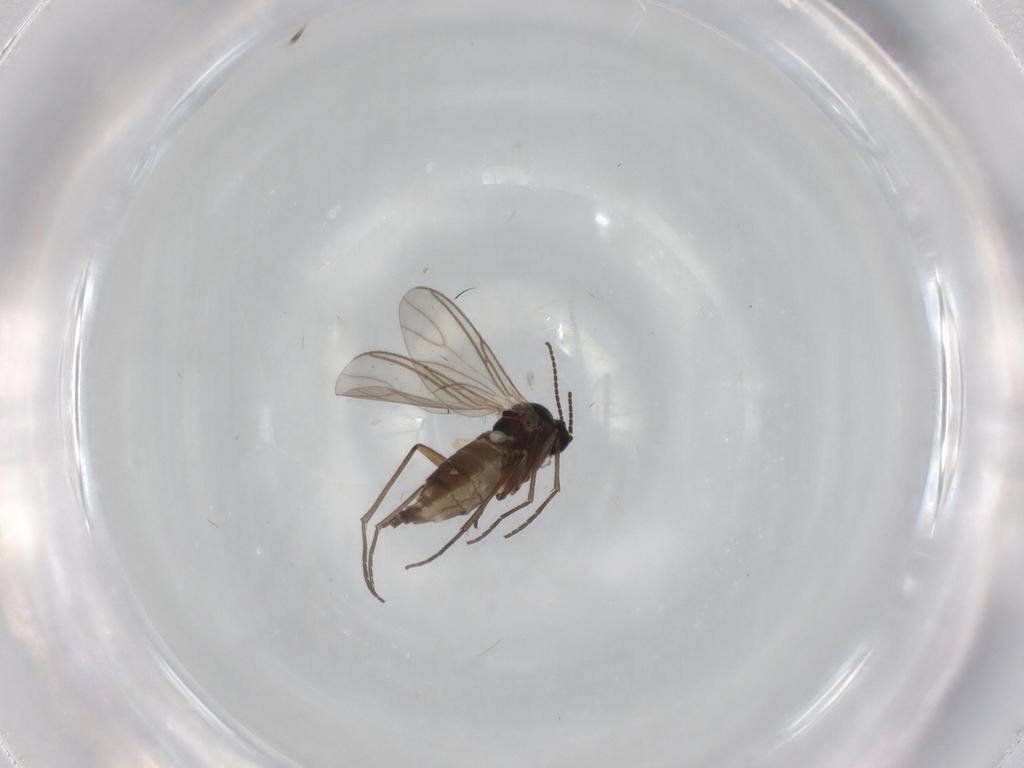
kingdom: Animalia
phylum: Arthropoda
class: Insecta
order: Diptera
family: Sciaridae
